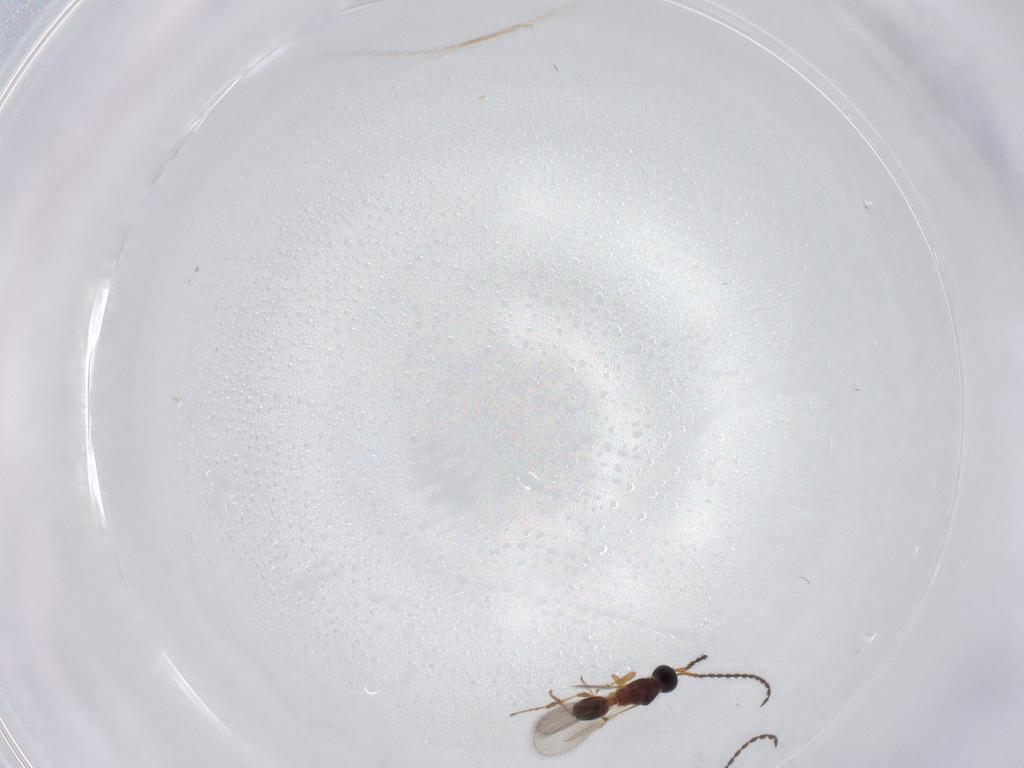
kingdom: Animalia
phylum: Arthropoda
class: Insecta
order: Hymenoptera
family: Diapriidae
